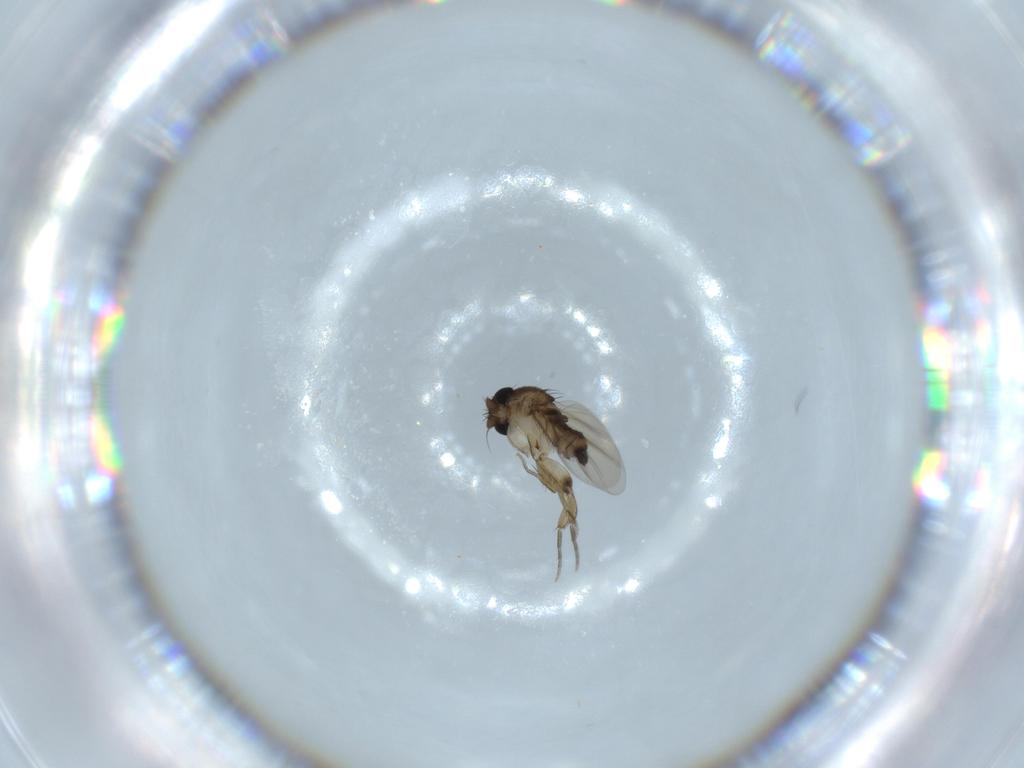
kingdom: Animalia
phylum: Arthropoda
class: Insecta
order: Diptera
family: Phoridae
